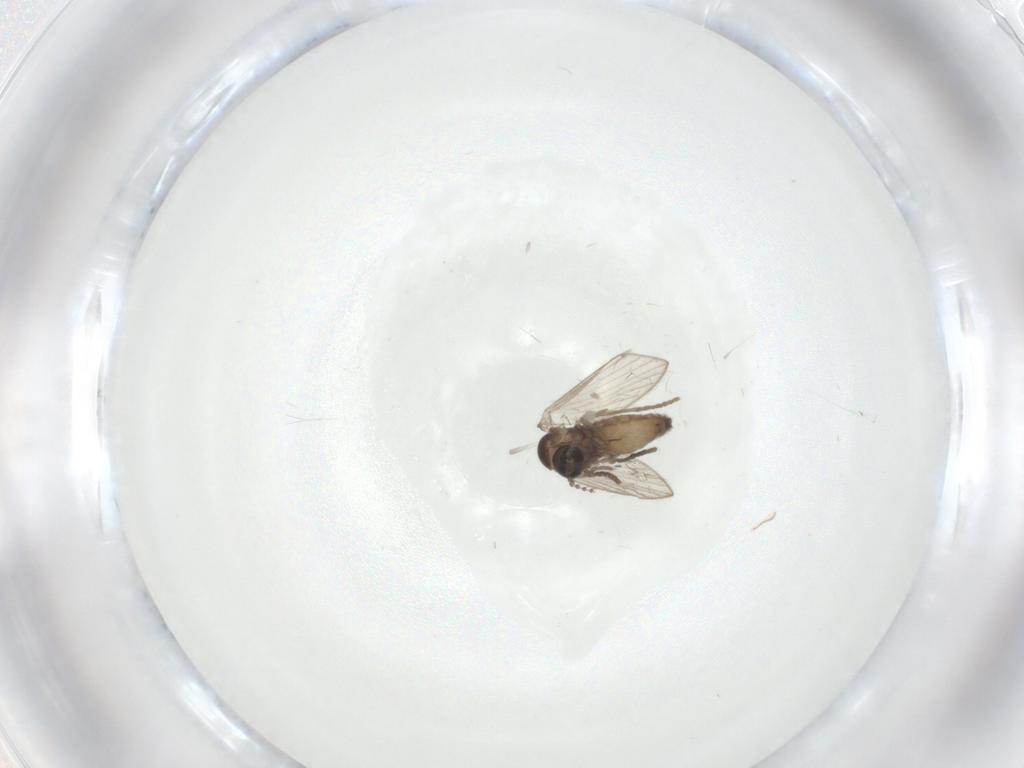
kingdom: Animalia
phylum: Arthropoda
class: Insecta
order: Diptera
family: Psychodidae
